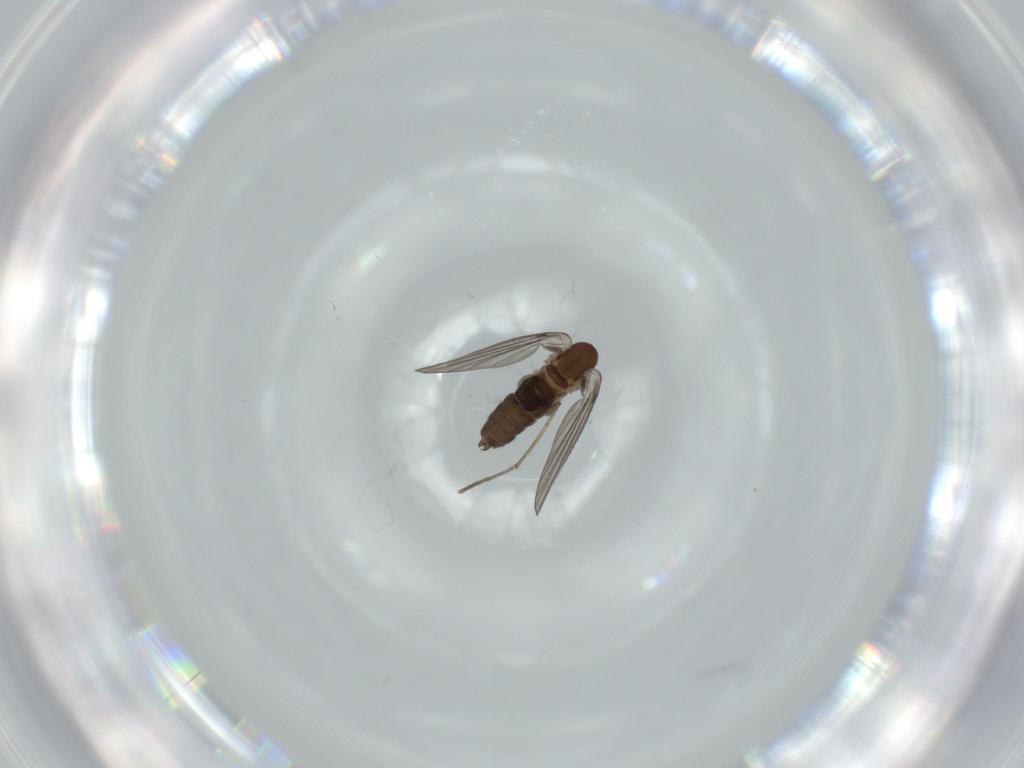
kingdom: Animalia
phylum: Arthropoda
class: Insecta
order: Diptera
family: Psychodidae
